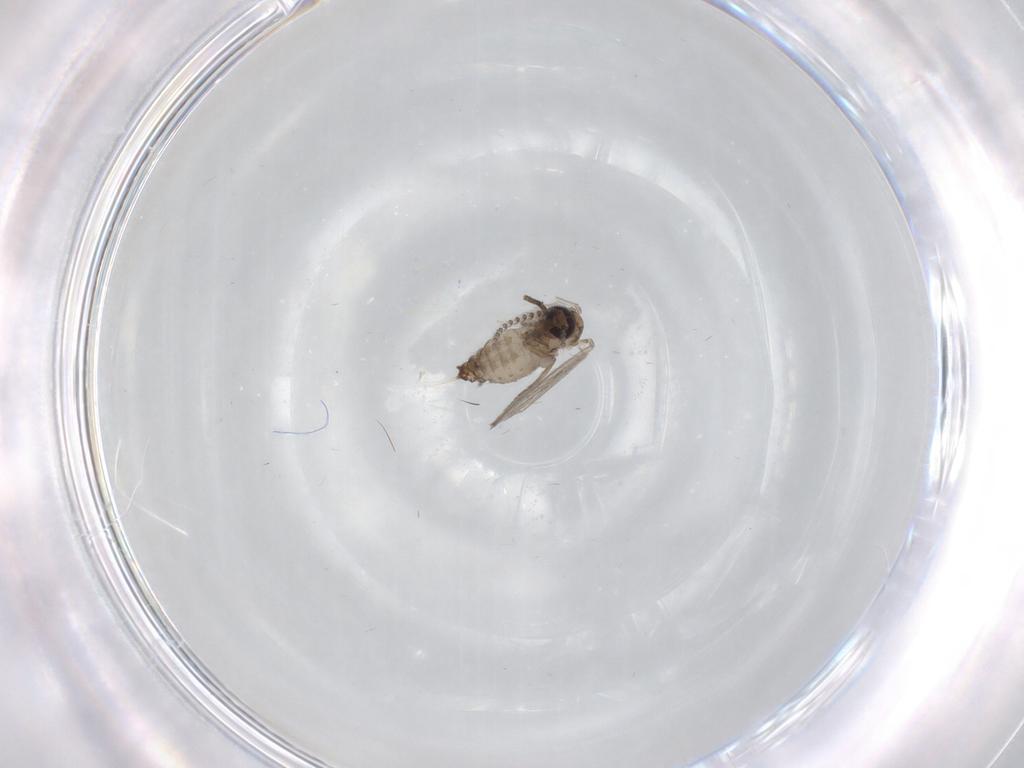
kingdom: Animalia
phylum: Arthropoda
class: Insecta
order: Diptera
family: Psychodidae
